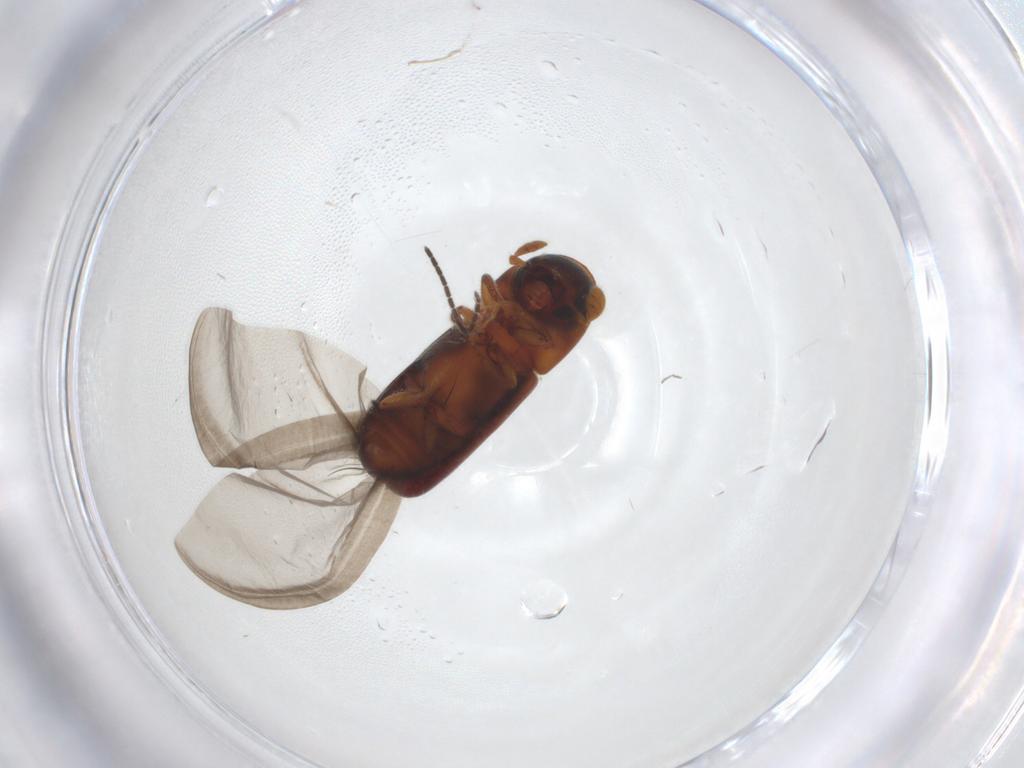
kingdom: Animalia
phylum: Arthropoda
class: Insecta
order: Coleoptera
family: Curculionidae
